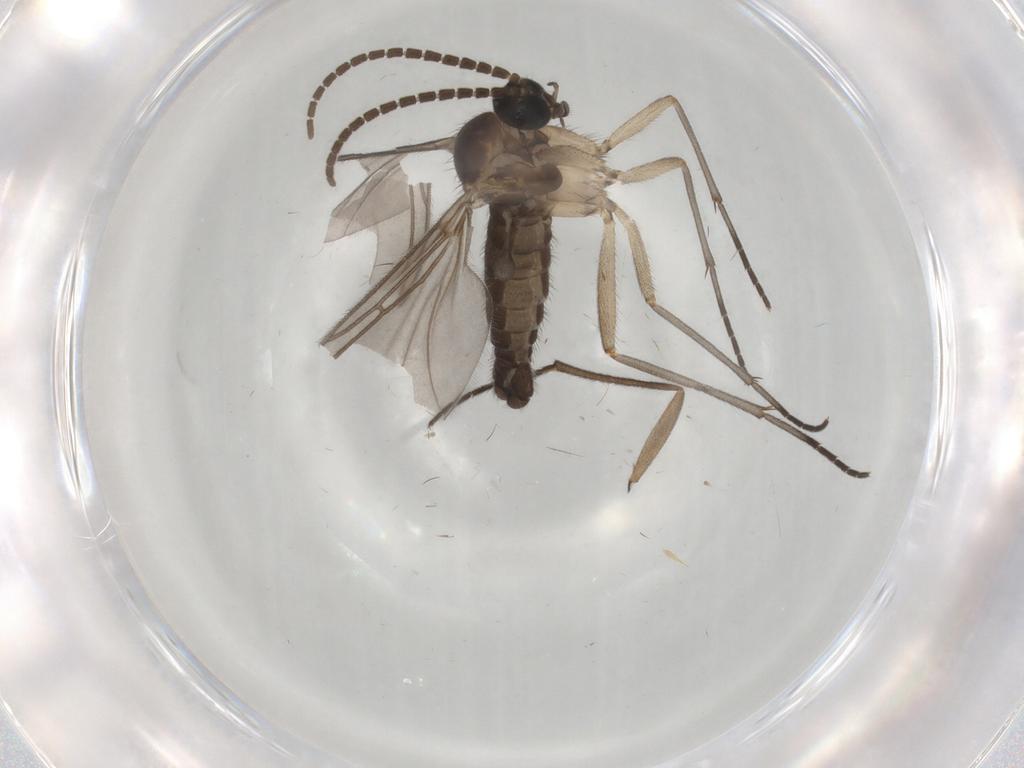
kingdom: Animalia
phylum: Arthropoda
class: Insecta
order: Diptera
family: Sciaridae
